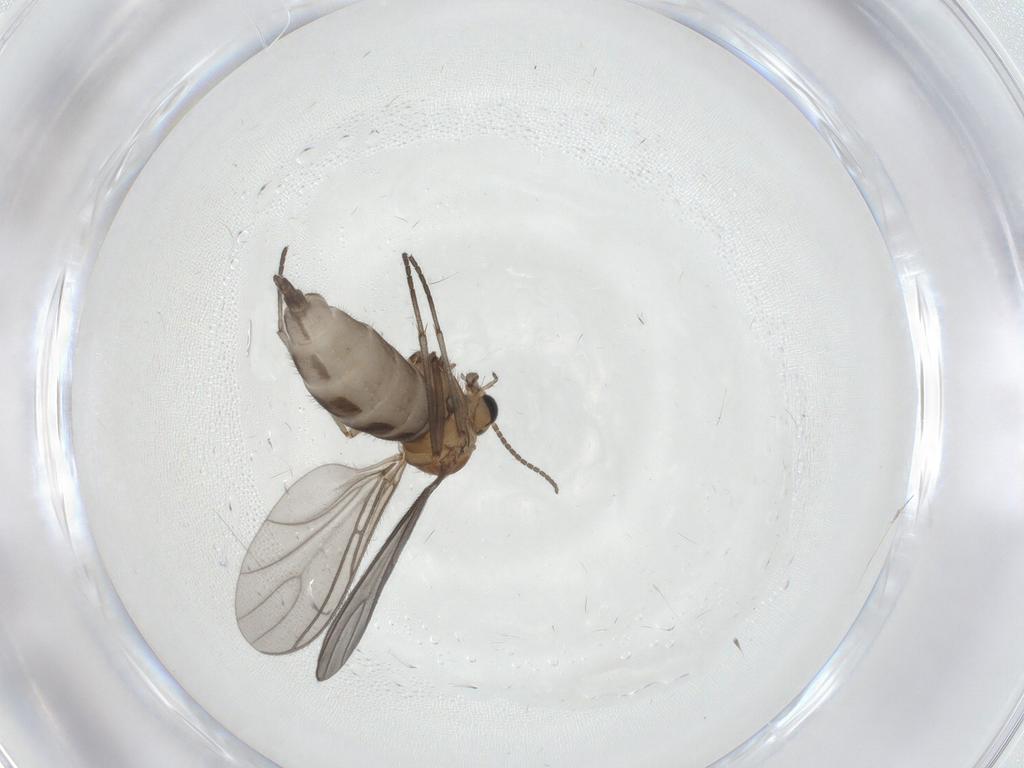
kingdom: Animalia
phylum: Arthropoda
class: Insecta
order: Diptera
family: Sciaridae
